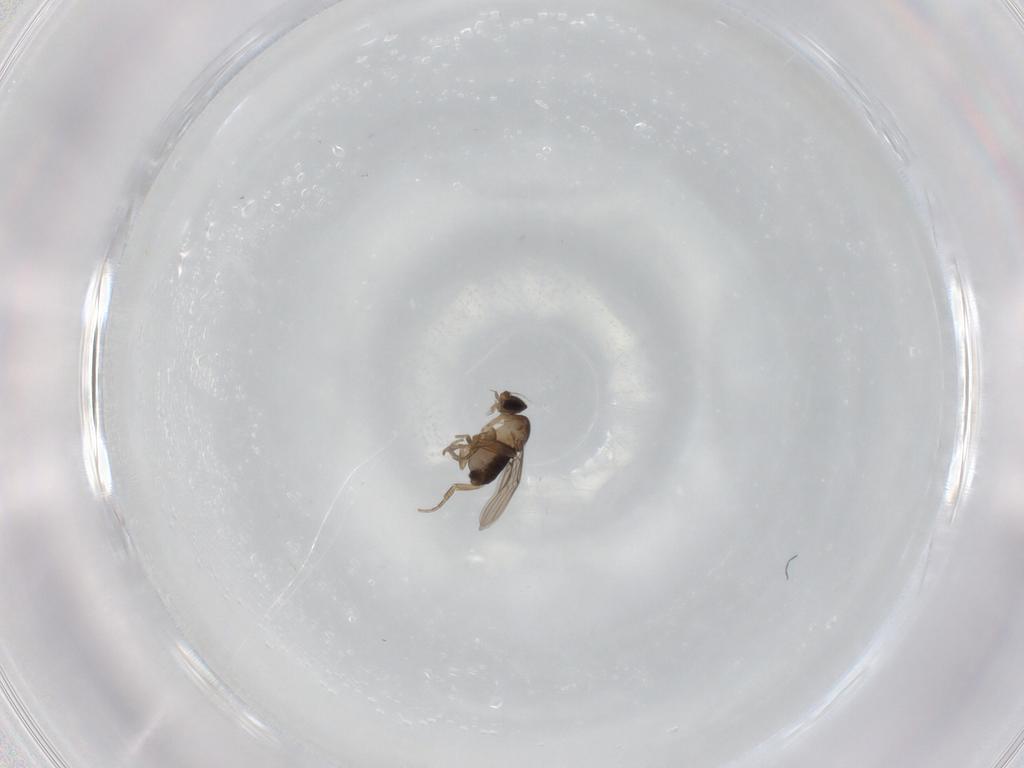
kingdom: Animalia
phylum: Arthropoda
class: Insecta
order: Diptera
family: Phoridae
